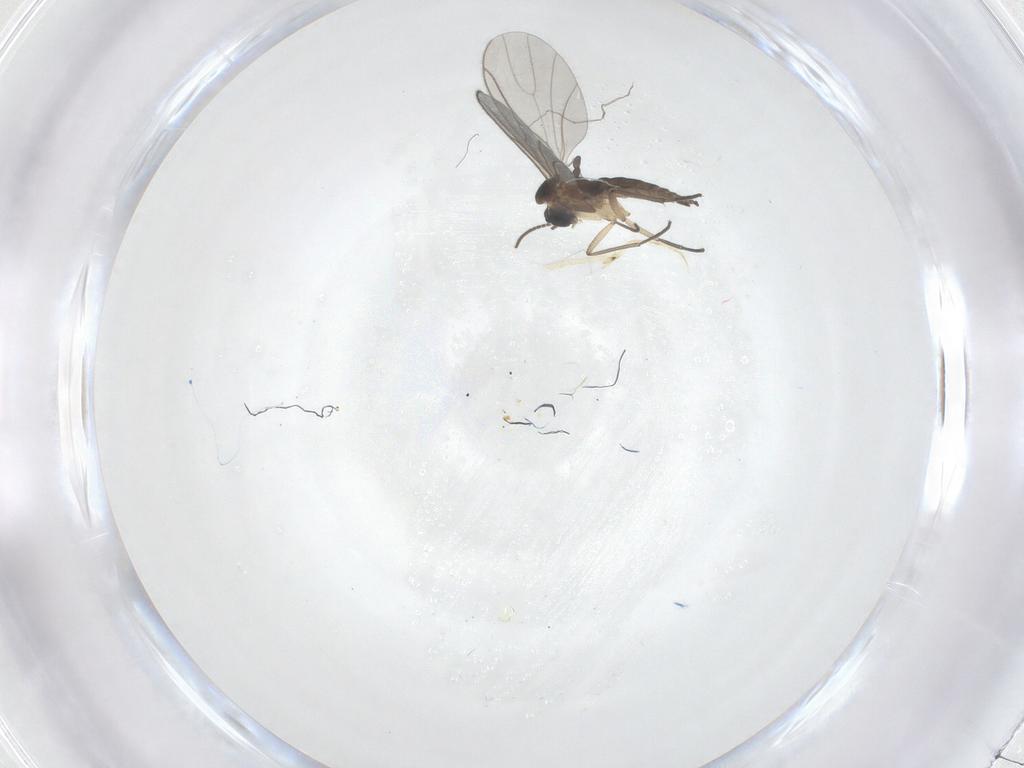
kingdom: Animalia
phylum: Arthropoda
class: Insecta
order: Diptera
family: Sciaridae
